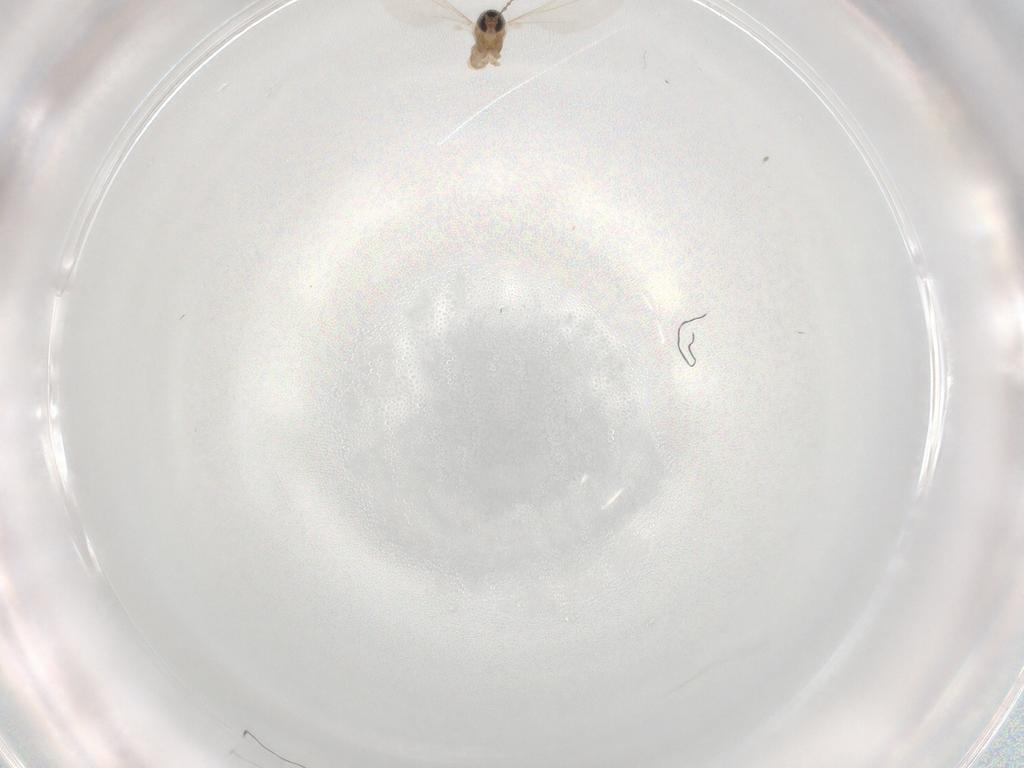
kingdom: Animalia
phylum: Arthropoda
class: Insecta
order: Diptera
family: Cecidomyiidae
